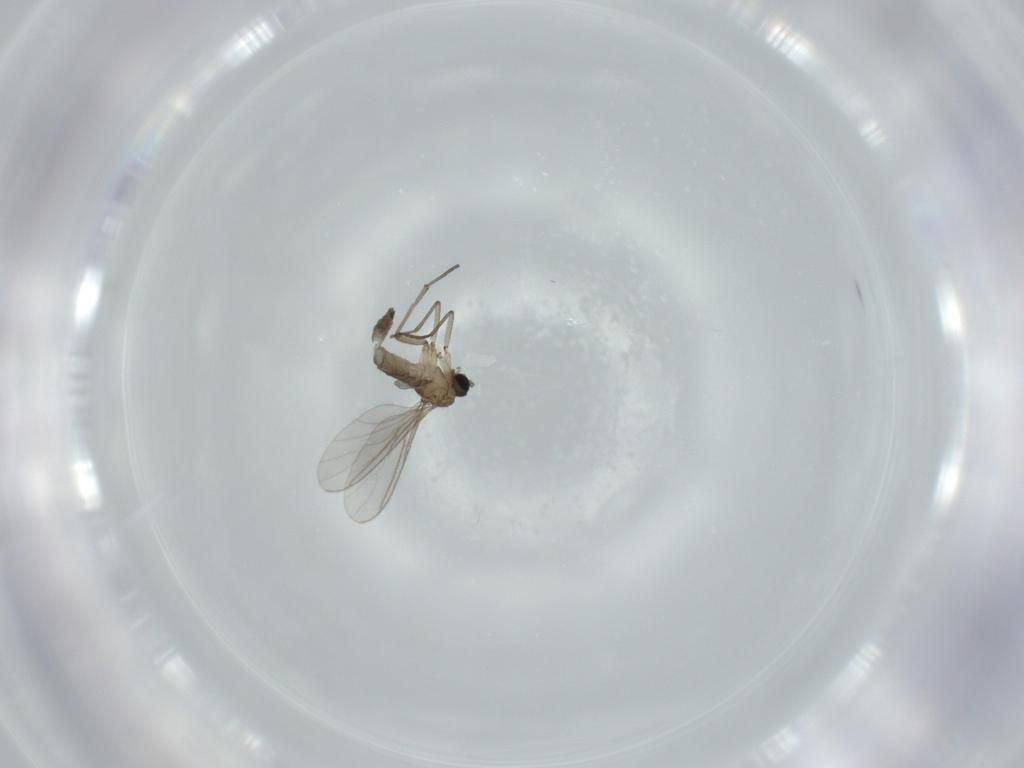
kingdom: Animalia
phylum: Arthropoda
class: Insecta
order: Diptera
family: Sciaridae
